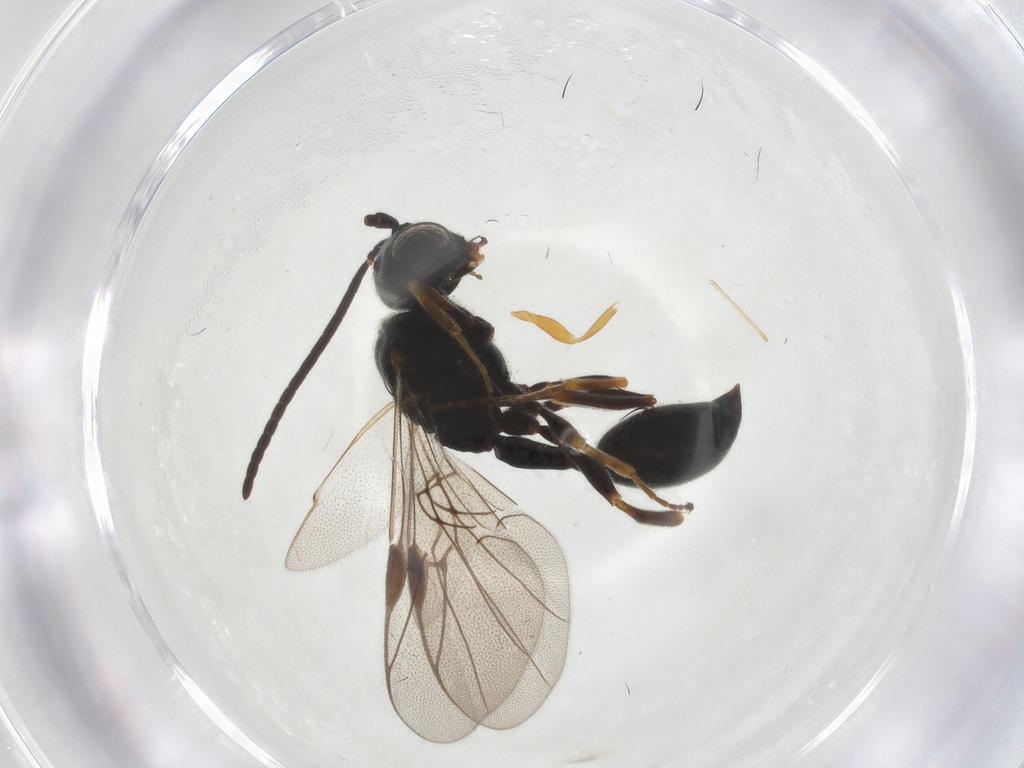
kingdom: Animalia
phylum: Arthropoda
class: Insecta
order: Hymenoptera
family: Braconidae
